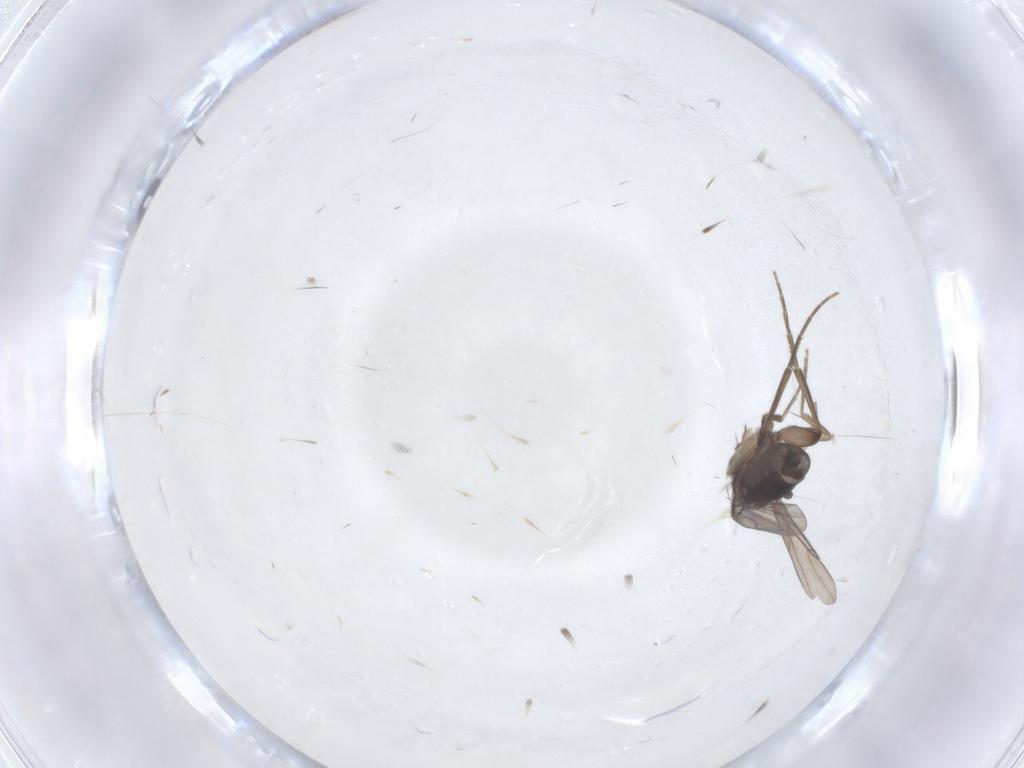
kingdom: Animalia
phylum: Arthropoda
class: Insecta
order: Diptera
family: Phoridae
